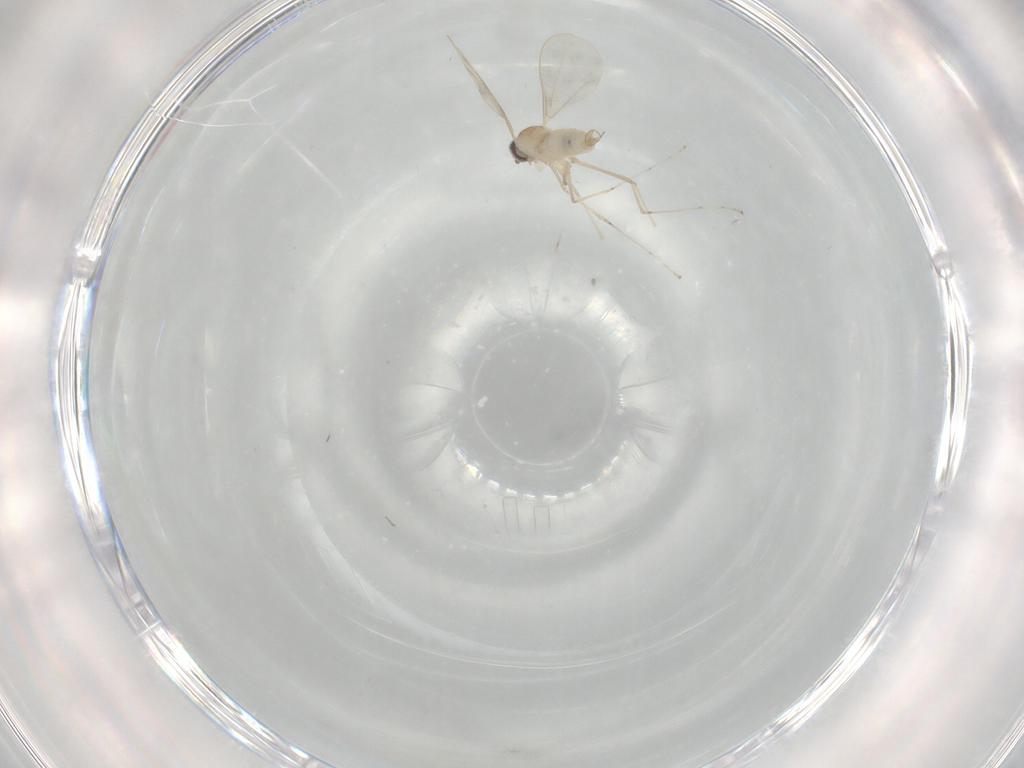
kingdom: Animalia
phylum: Arthropoda
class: Insecta
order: Diptera
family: Cecidomyiidae
